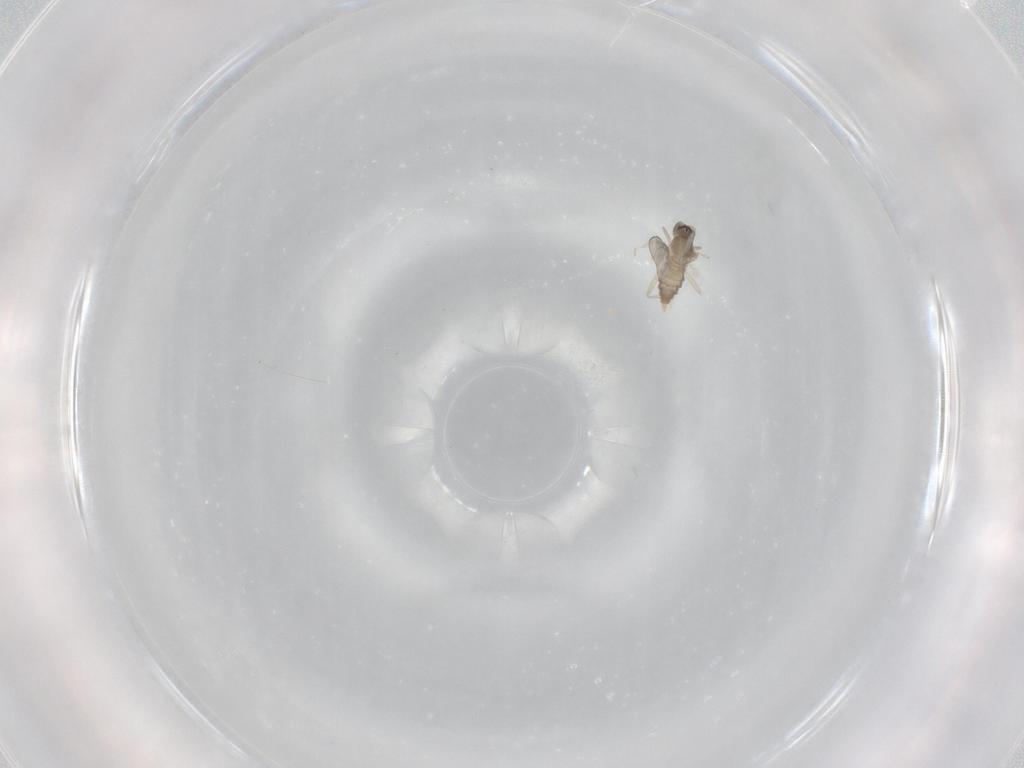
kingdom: Animalia
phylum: Arthropoda
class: Insecta
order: Diptera
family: Cecidomyiidae
